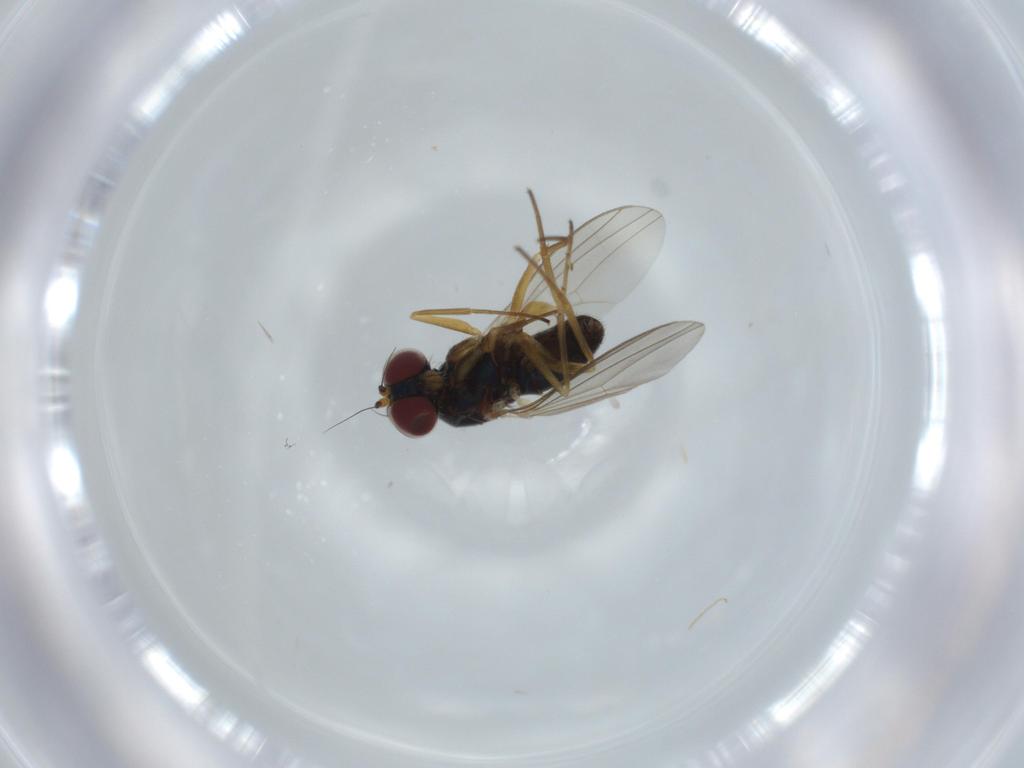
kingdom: Animalia
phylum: Arthropoda
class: Insecta
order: Diptera
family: Dolichopodidae
